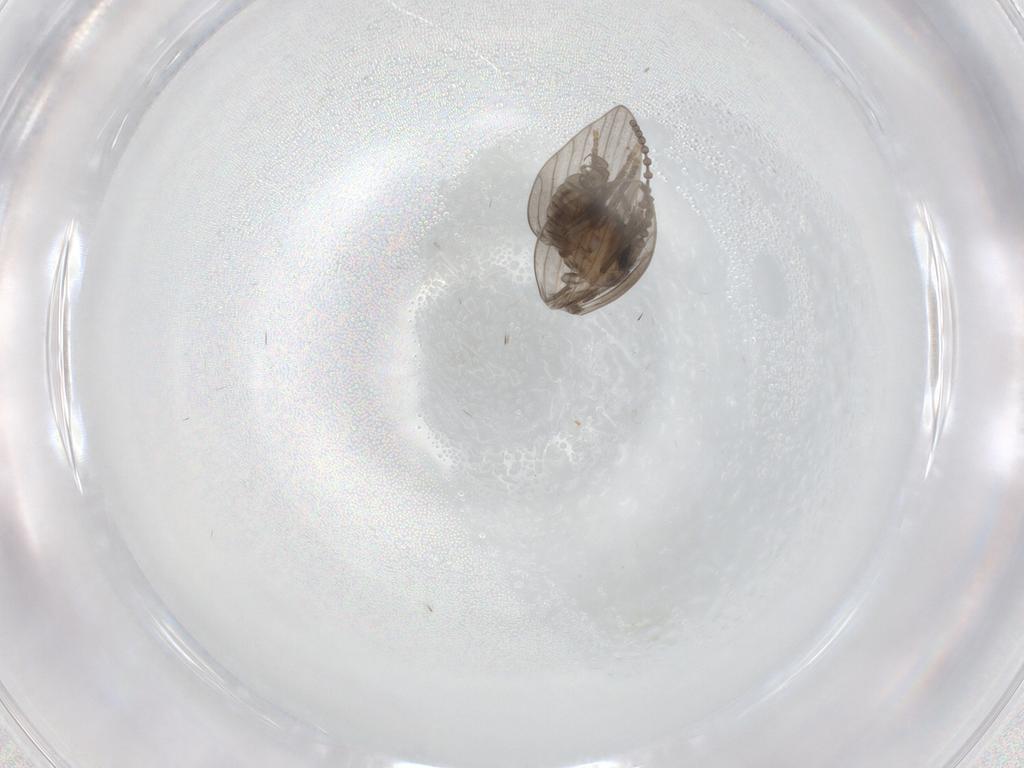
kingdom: Animalia
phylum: Arthropoda
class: Insecta
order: Diptera
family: Psychodidae
